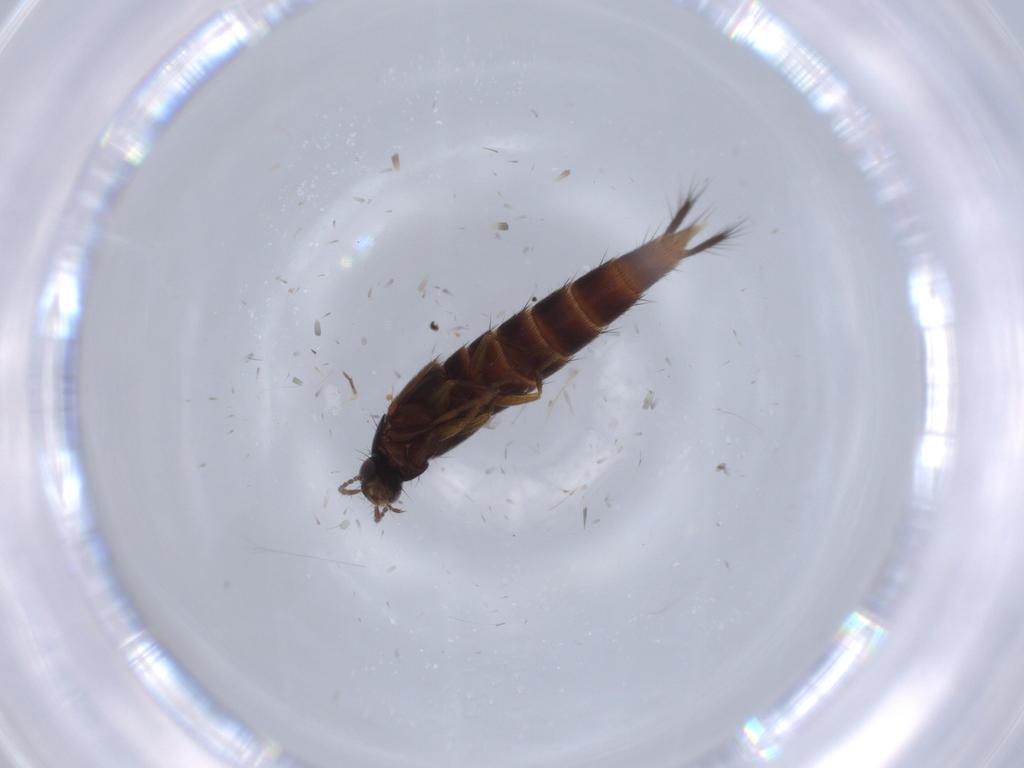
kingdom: Animalia
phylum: Arthropoda
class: Insecta
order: Coleoptera
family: Chrysomelidae
